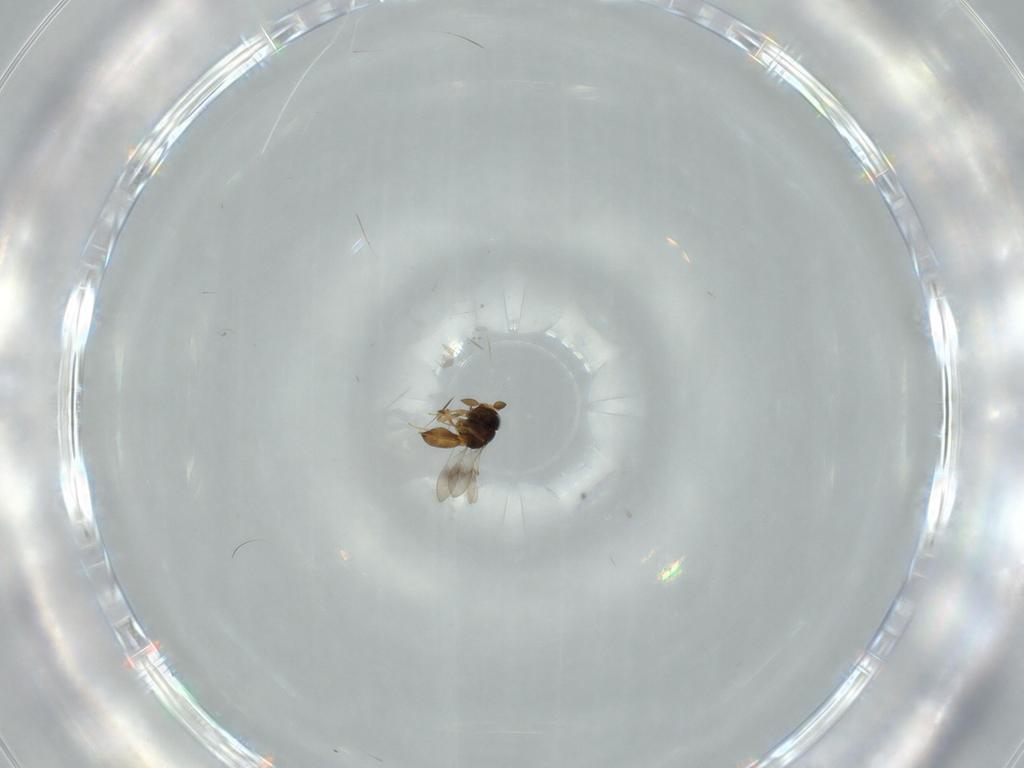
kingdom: Animalia
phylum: Arthropoda
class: Insecta
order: Hymenoptera
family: Scelionidae
